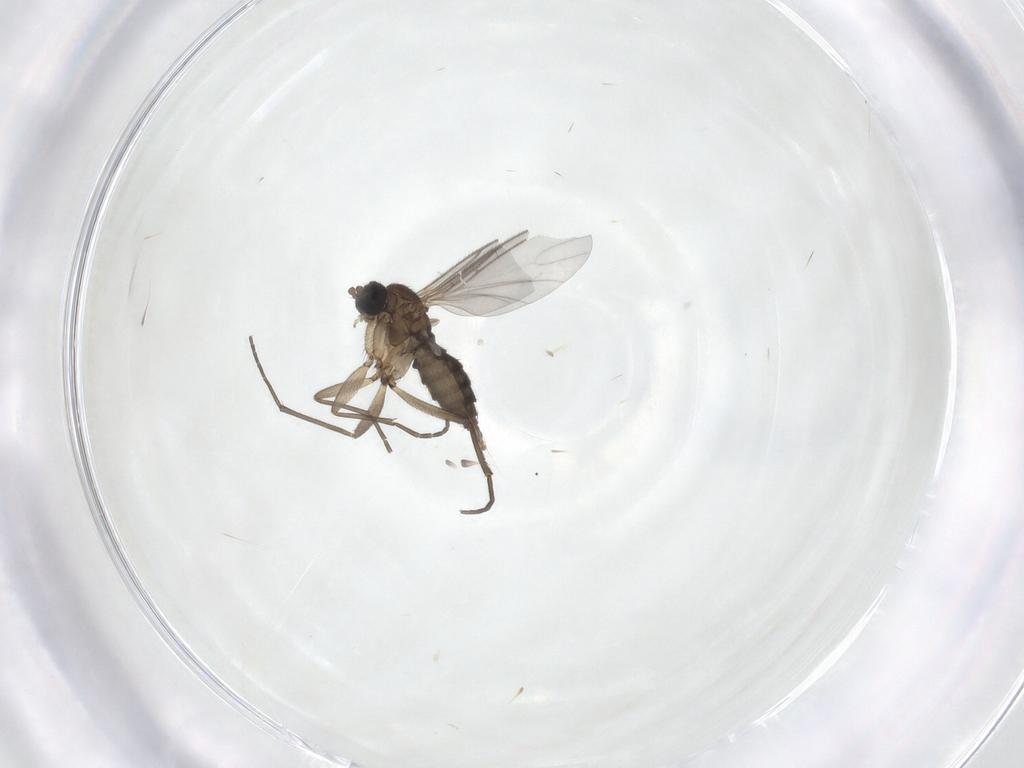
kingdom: Animalia
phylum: Arthropoda
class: Insecta
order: Diptera
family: Sciaridae
